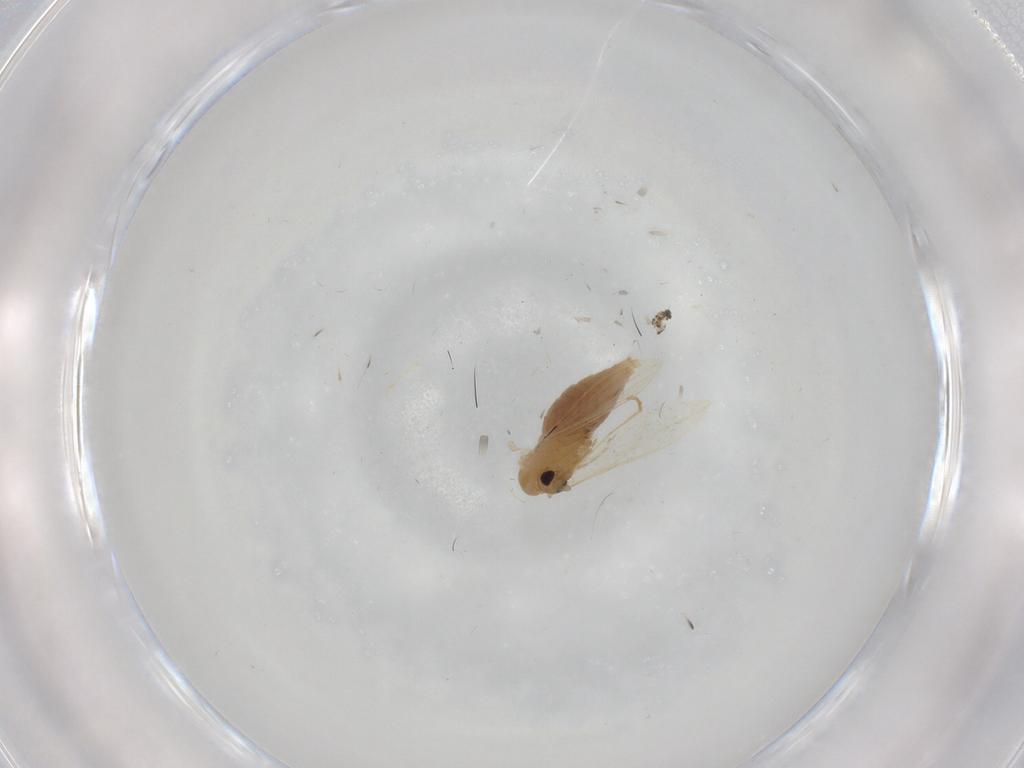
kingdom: Animalia
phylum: Arthropoda
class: Insecta
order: Diptera
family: Psychodidae
